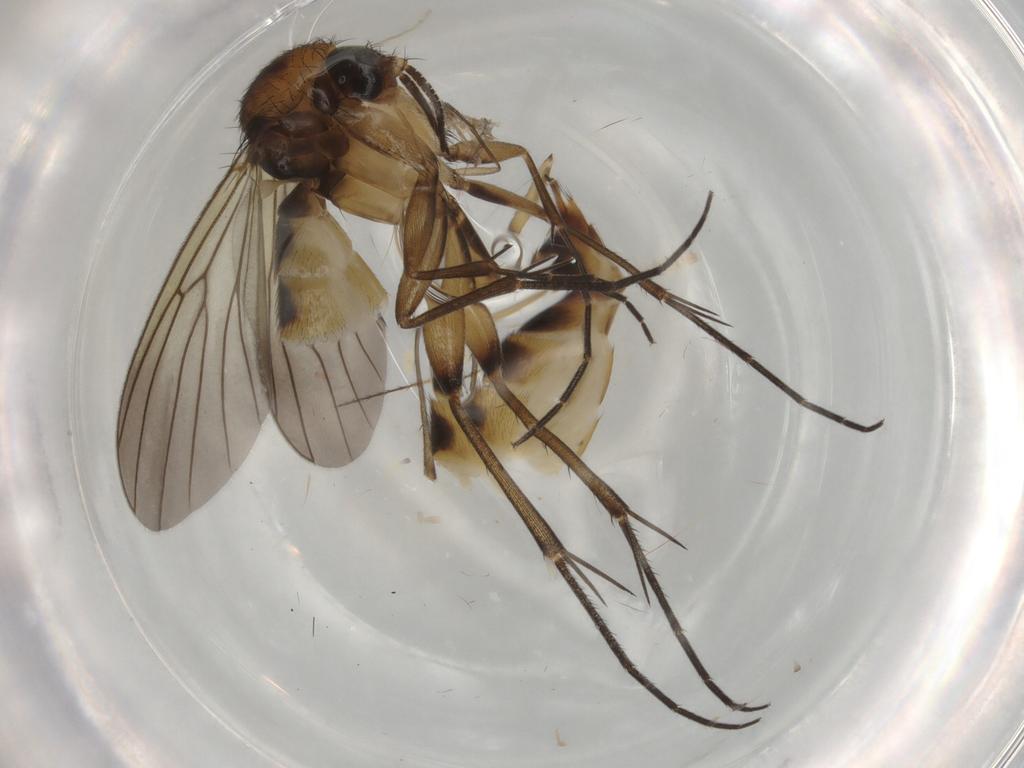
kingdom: Animalia
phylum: Arthropoda
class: Insecta
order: Diptera
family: Mycetophilidae
